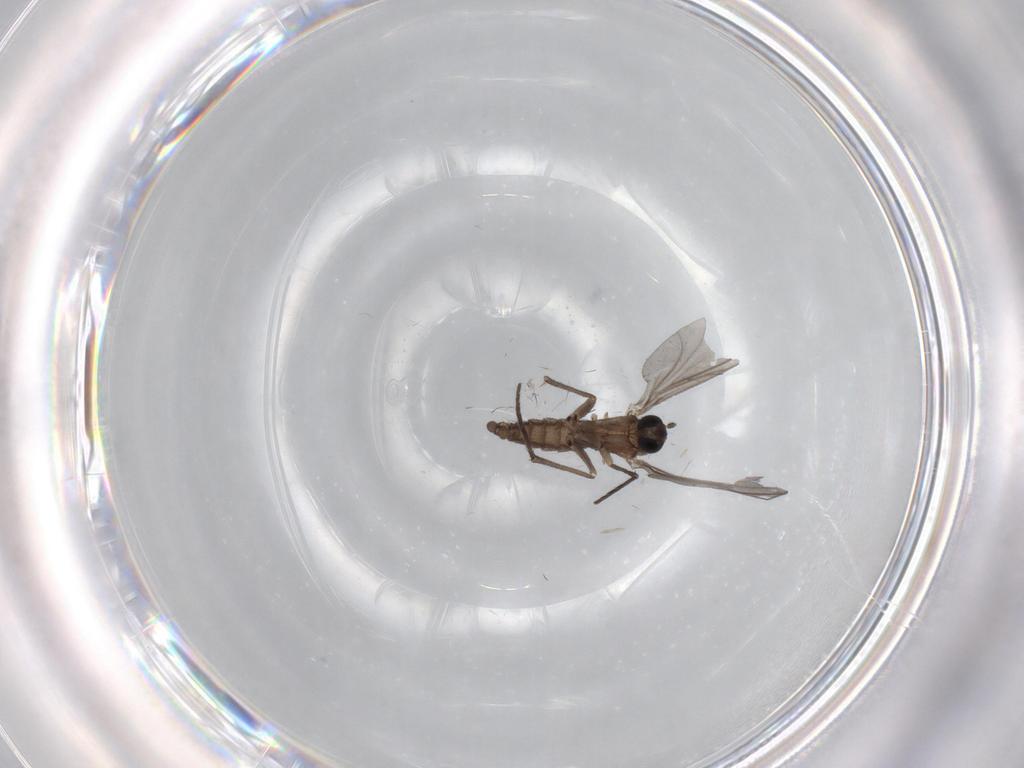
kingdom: Animalia
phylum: Arthropoda
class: Insecta
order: Diptera
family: Sciaridae
